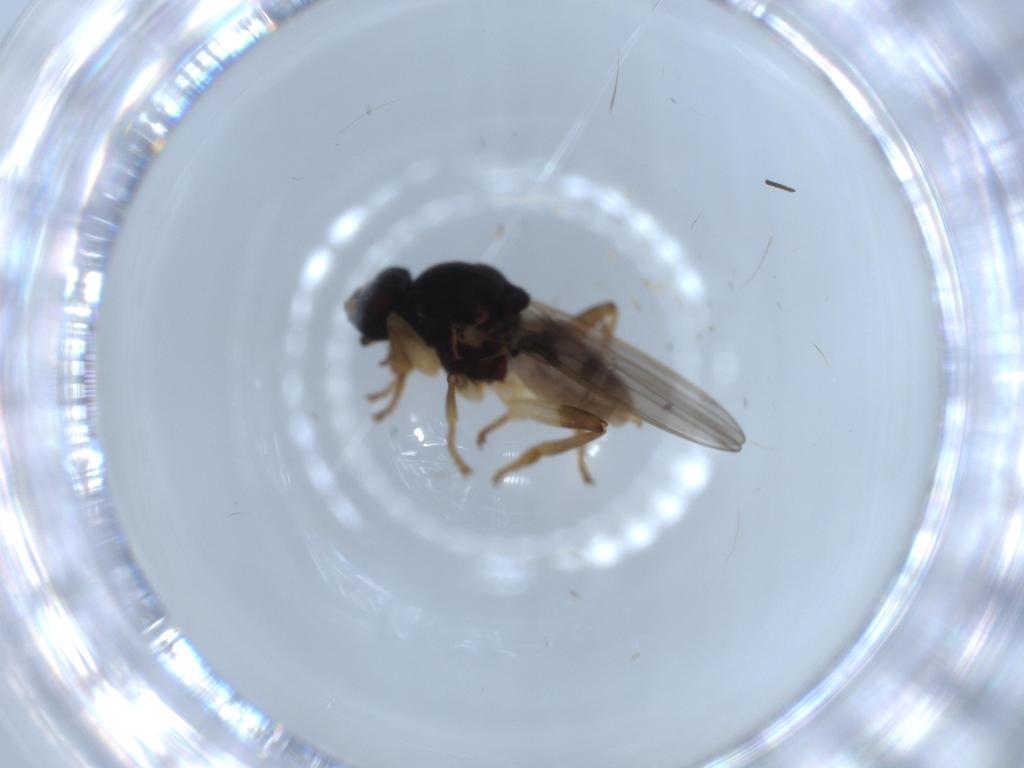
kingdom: Animalia
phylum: Arthropoda
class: Insecta
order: Diptera
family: Sphaeroceridae
